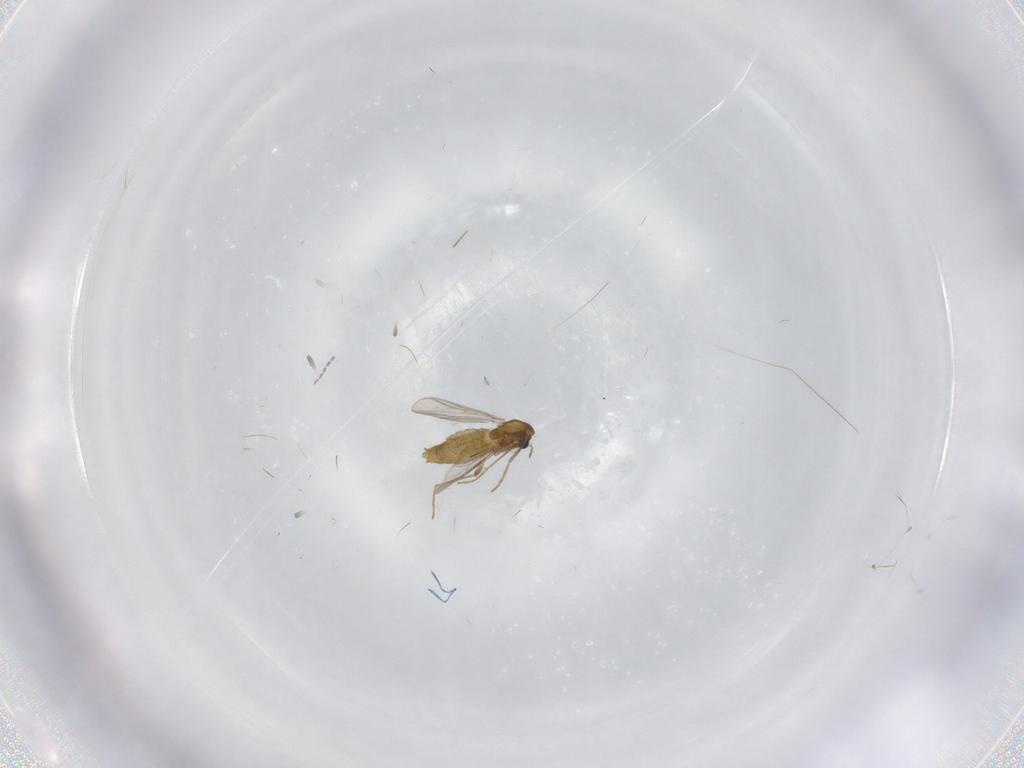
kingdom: Animalia
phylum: Arthropoda
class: Insecta
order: Diptera
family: Chironomidae
